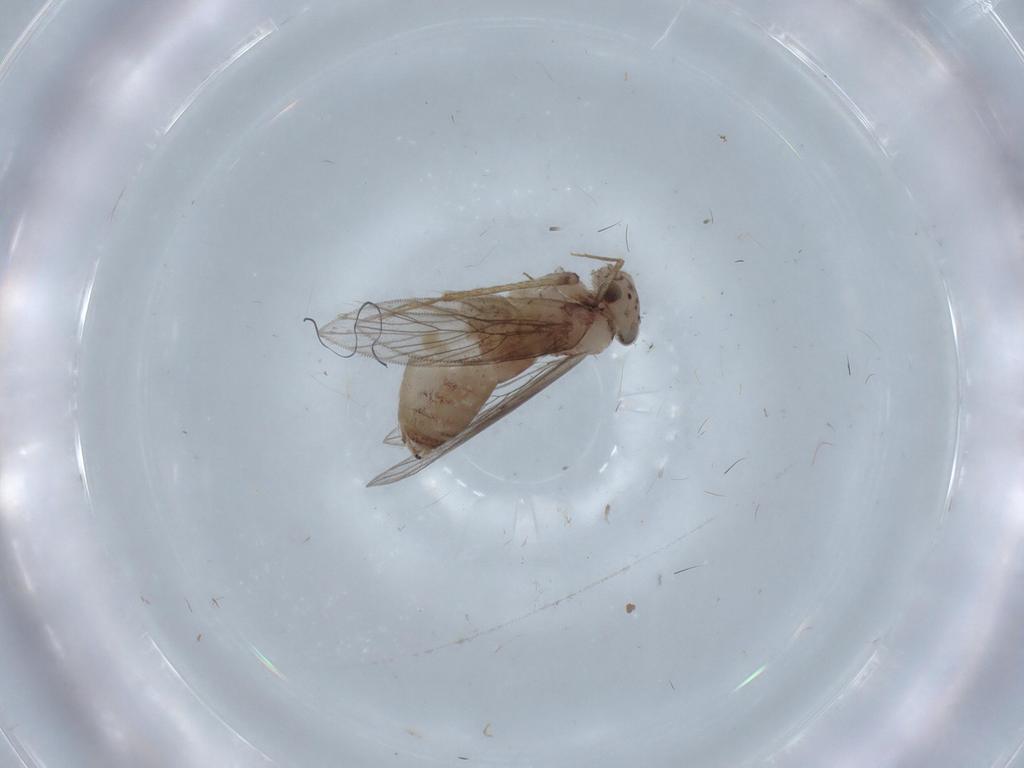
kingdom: Animalia
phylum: Arthropoda
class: Insecta
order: Psocodea
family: Lepidopsocidae
